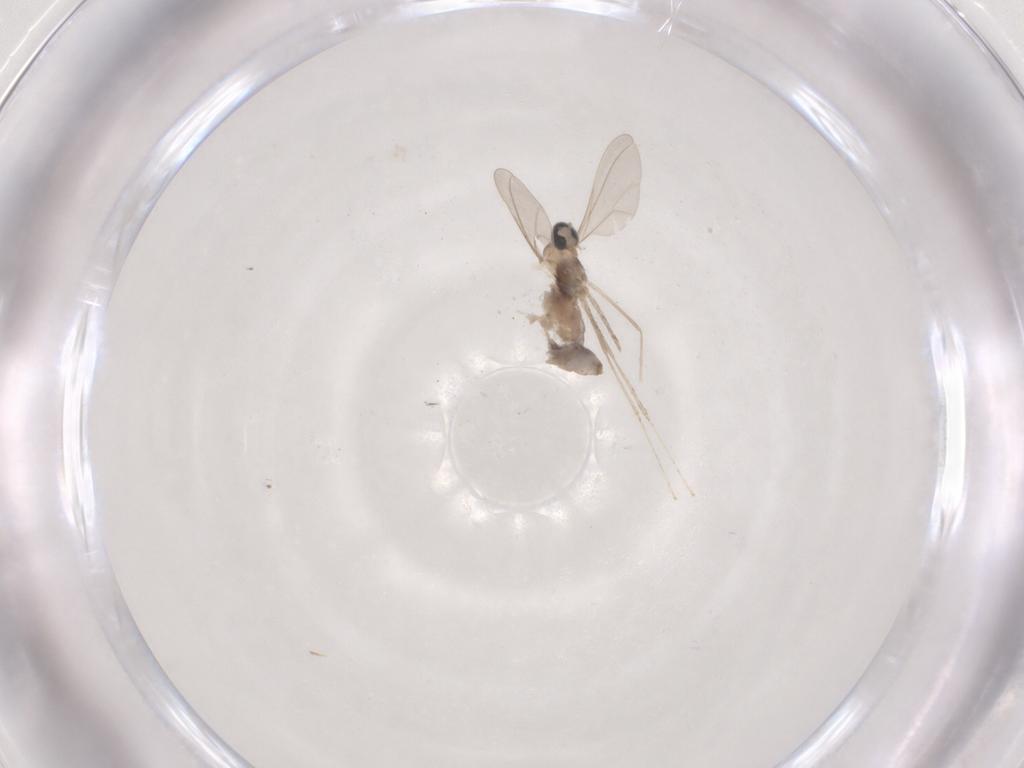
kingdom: Animalia
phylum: Arthropoda
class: Insecta
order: Diptera
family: Cecidomyiidae
